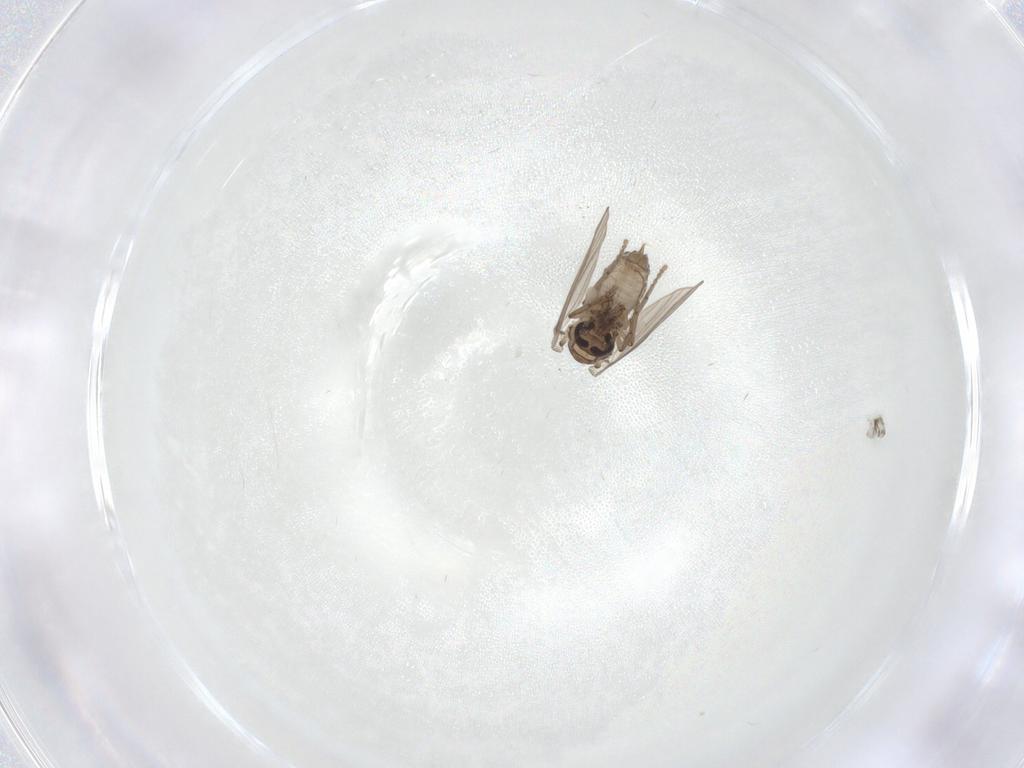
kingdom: Animalia
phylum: Arthropoda
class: Insecta
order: Diptera
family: Psychodidae
